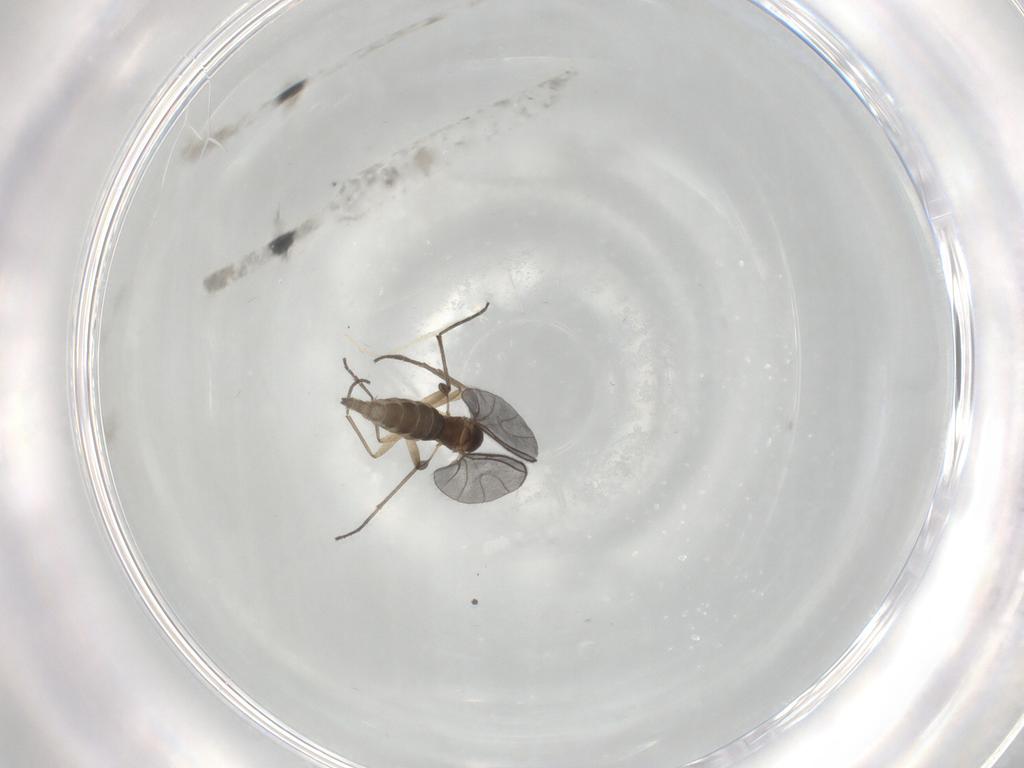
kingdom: Animalia
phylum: Arthropoda
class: Insecta
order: Diptera
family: Sciaridae
